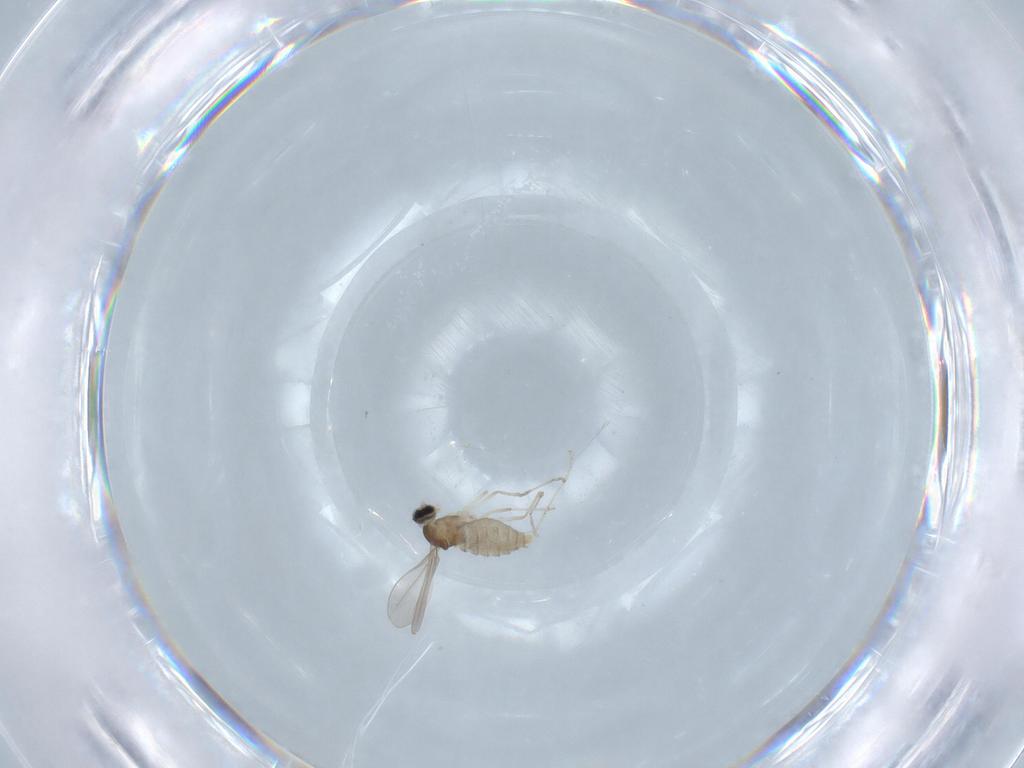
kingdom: Animalia
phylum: Arthropoda
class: Insecta
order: Diptera
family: Cecidomyiidae
